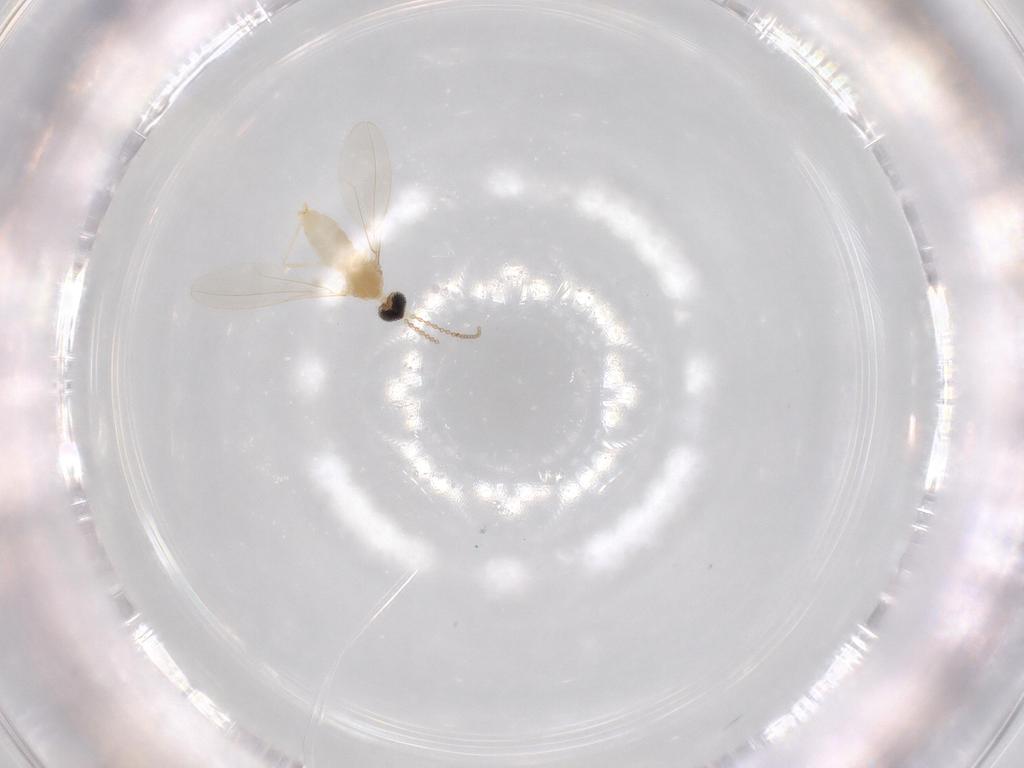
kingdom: Animalia
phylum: Arthropoda
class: Insecta
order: Diptera
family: Cecidomyiidae
